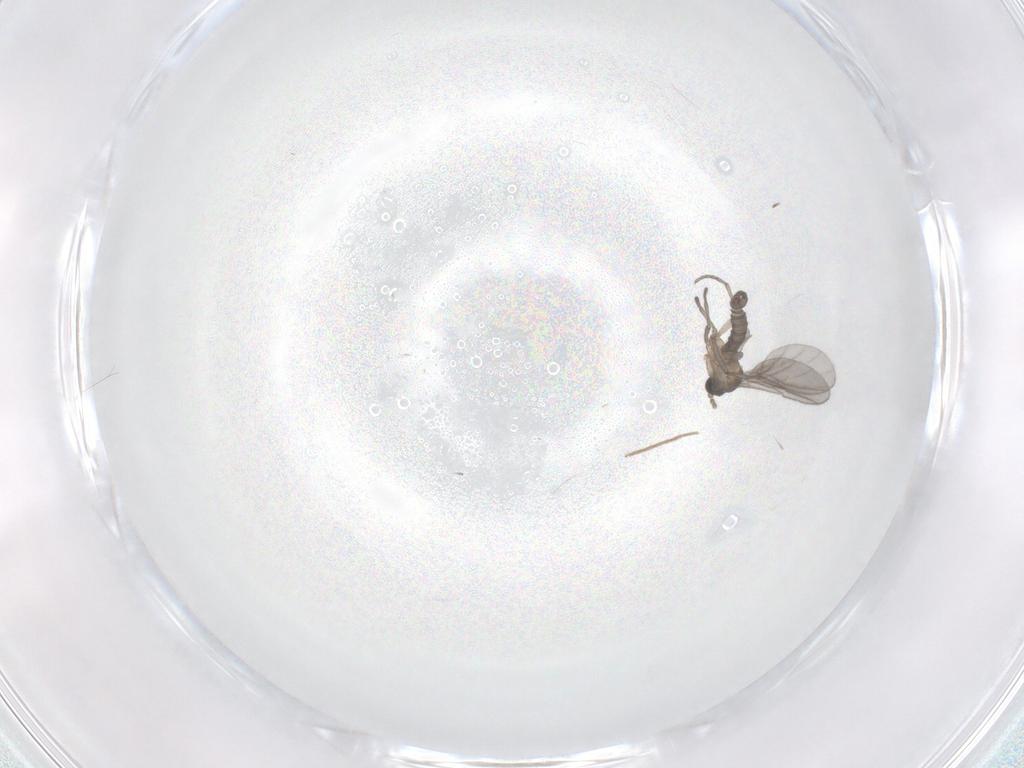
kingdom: Animalia
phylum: Arthropoda
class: Insecta
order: Diptera
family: Sciaridae
